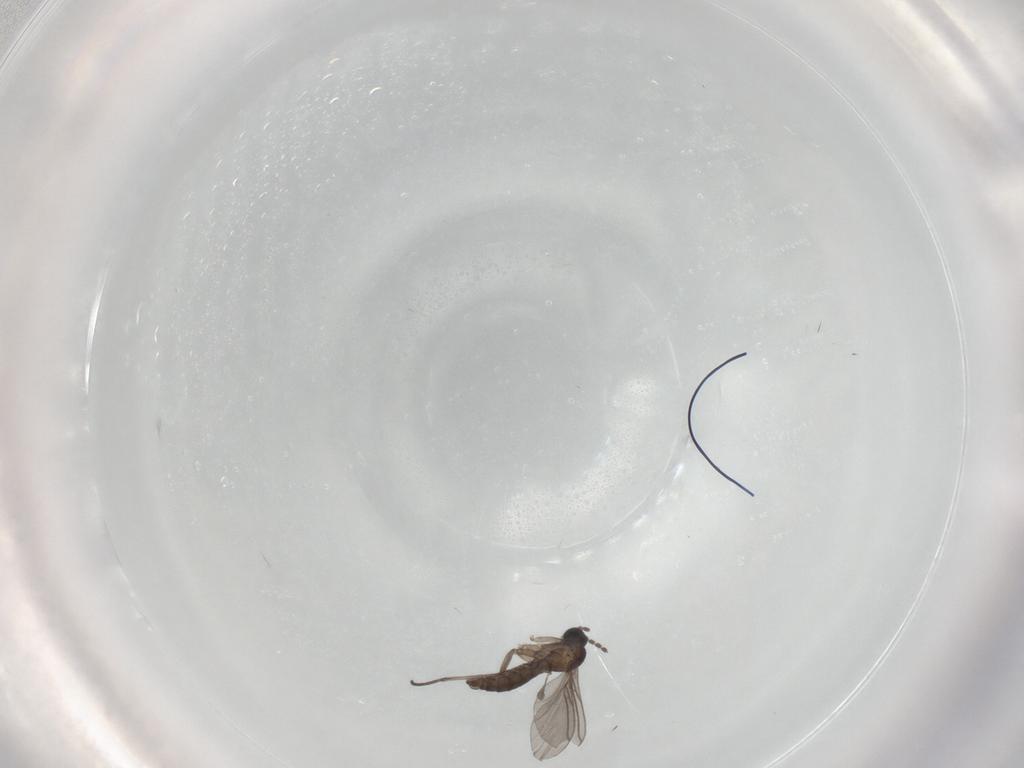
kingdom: Animalia
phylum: Arthropoda
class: Insecta
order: Diptera
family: Sciaridae
